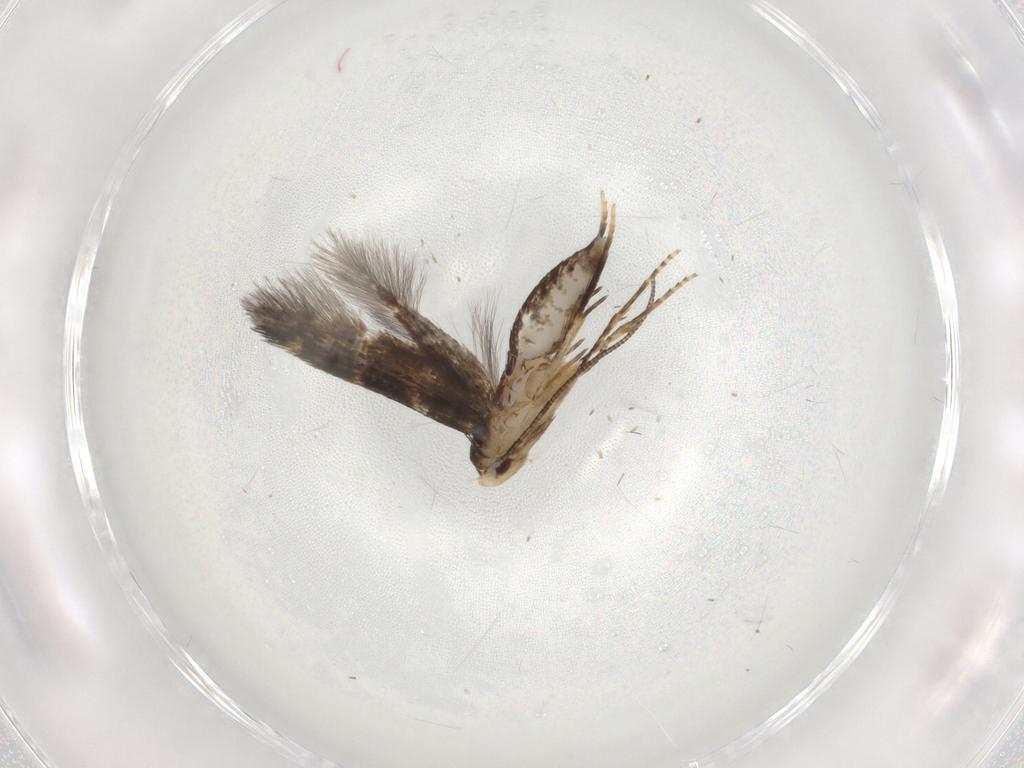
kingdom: Animalia
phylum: Arthropoda
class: Insecta
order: Lepidoptera
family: Ypsolophidae
